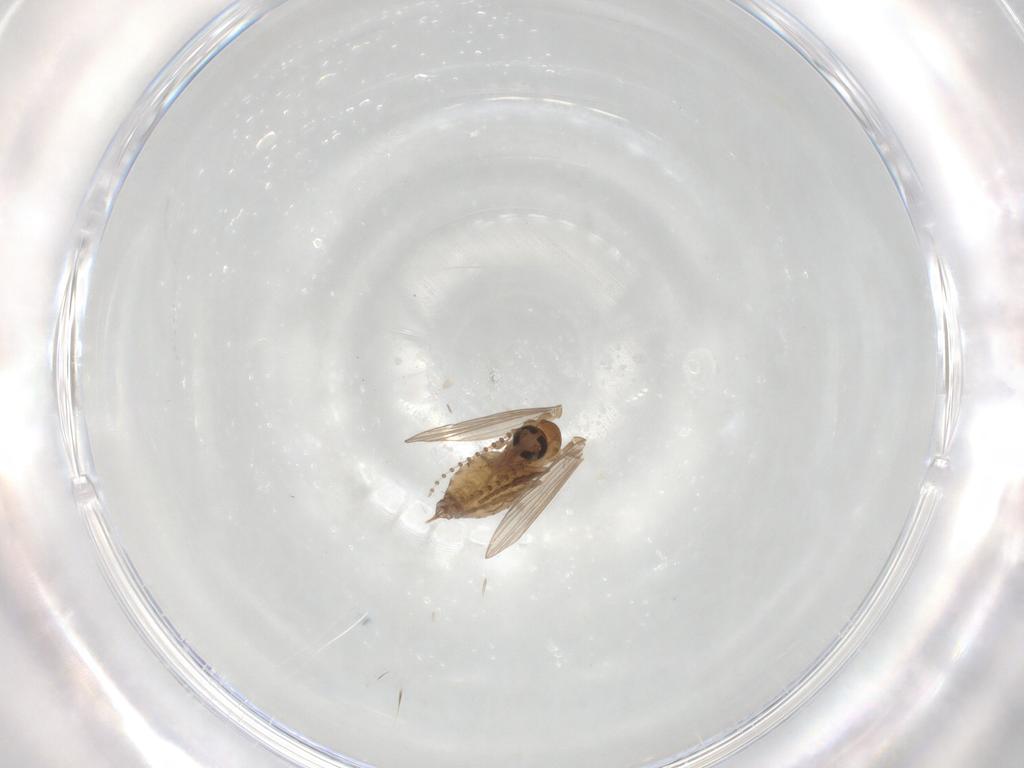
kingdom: Animalia
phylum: Arthropoda
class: Insecta
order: Diptera
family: Psychodidae
